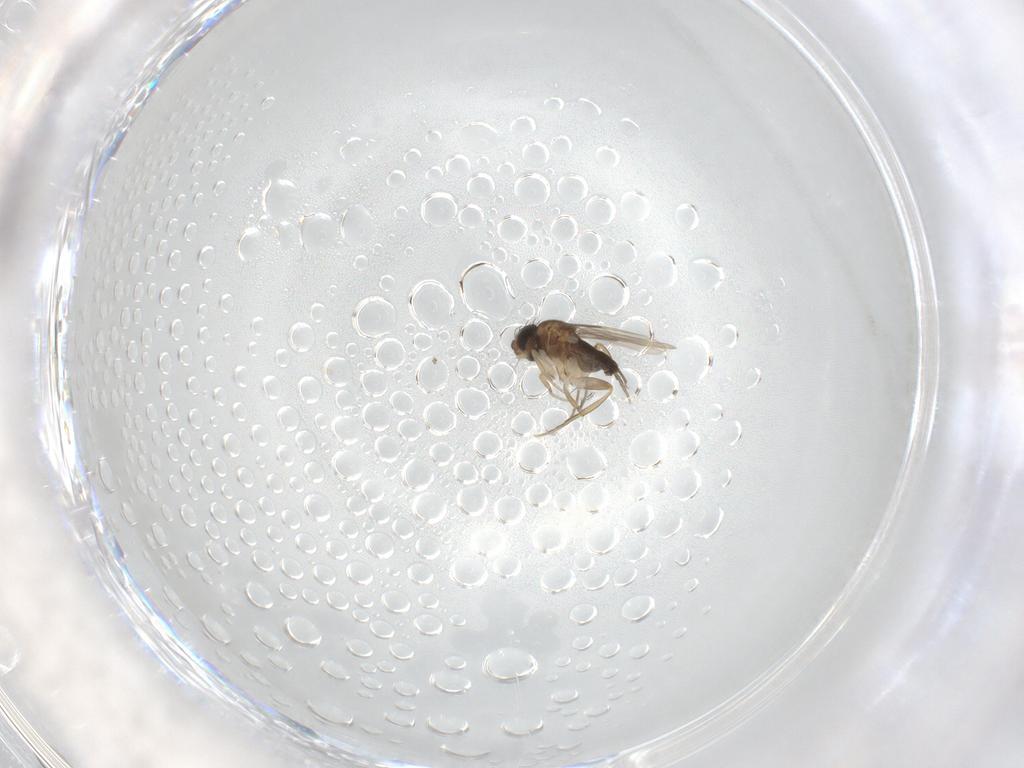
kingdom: Animalia
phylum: Arthropoda
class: Insecta
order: Diptera
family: Phoridae
